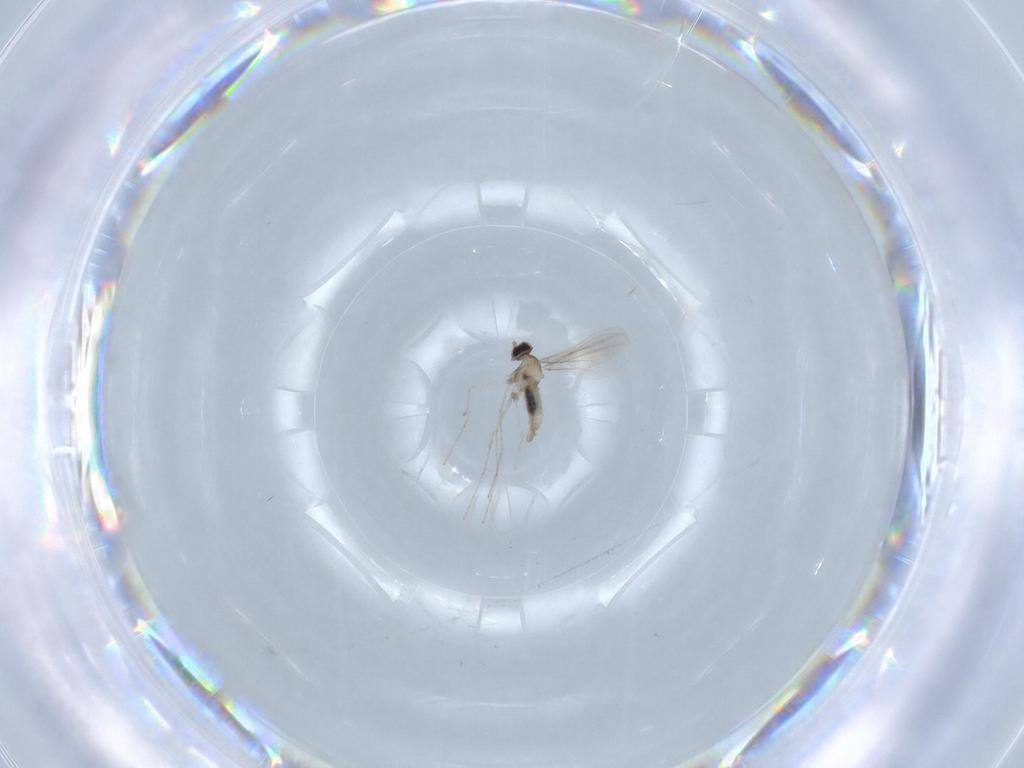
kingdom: Animalia
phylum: Arthropoda
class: Insecta
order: Diptera
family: Cecidomyiidae
